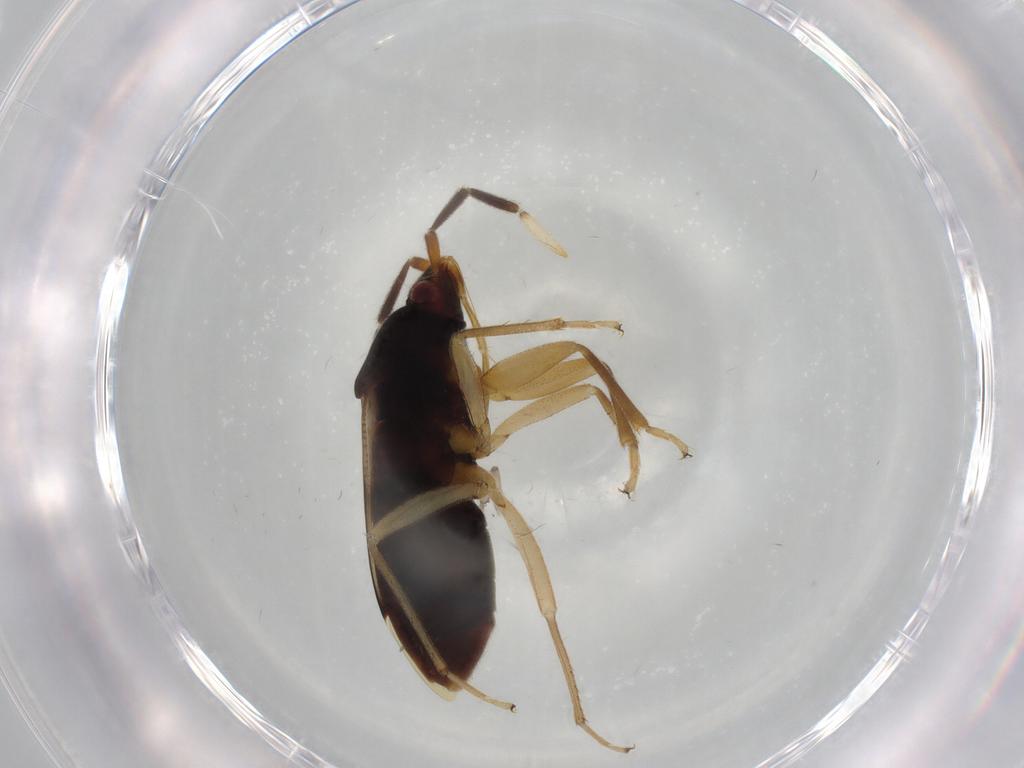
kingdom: Animalia
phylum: Arthropoda
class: Insecta
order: Hemiptera
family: Rhyparochromidae
